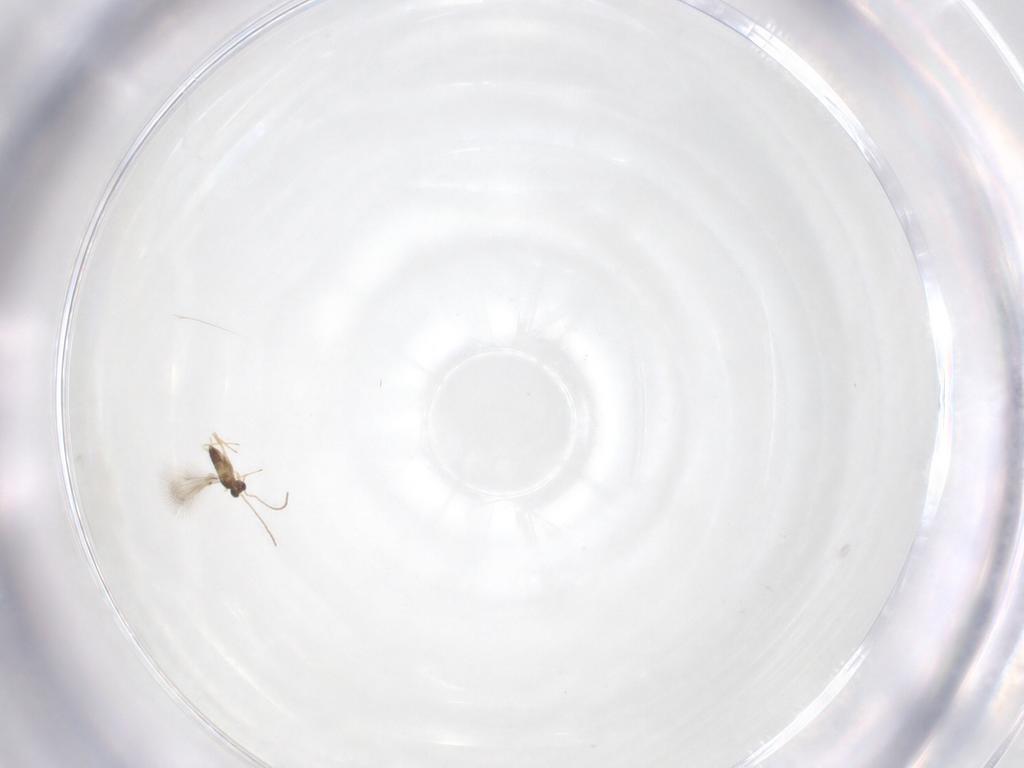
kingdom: Animalia
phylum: Arthropoda
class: Insecta
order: Hymenoptera
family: Mymaridae
